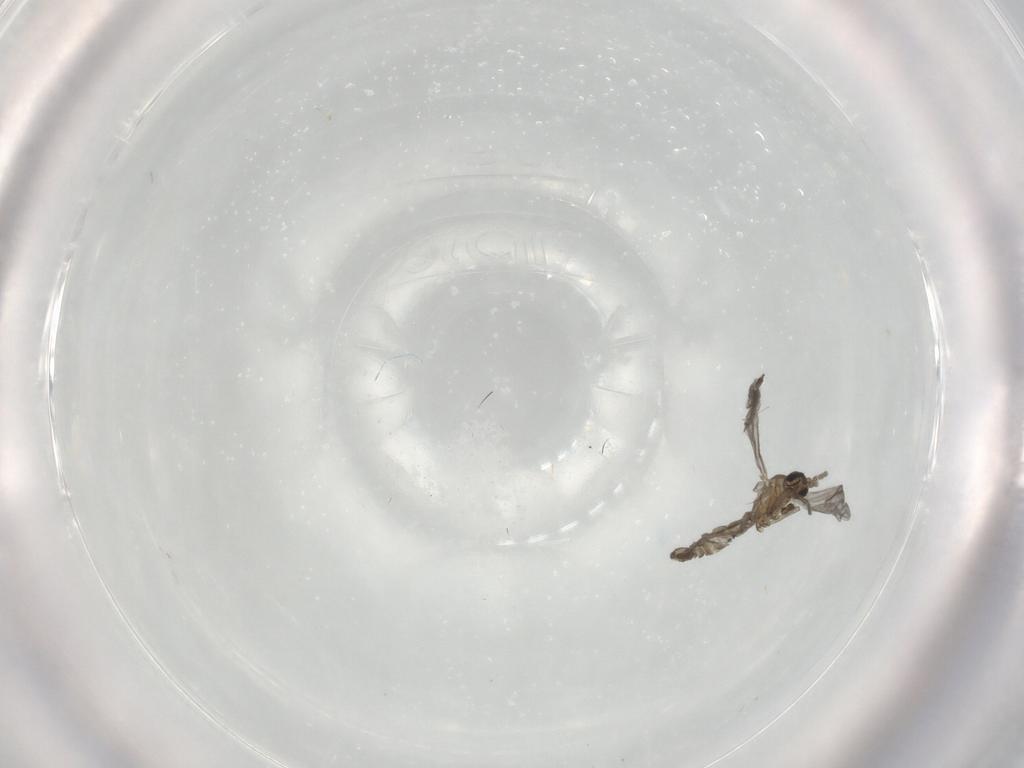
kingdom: Animalia
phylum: Arthropoda
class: Insecta
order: Diptera
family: Sciaridae
